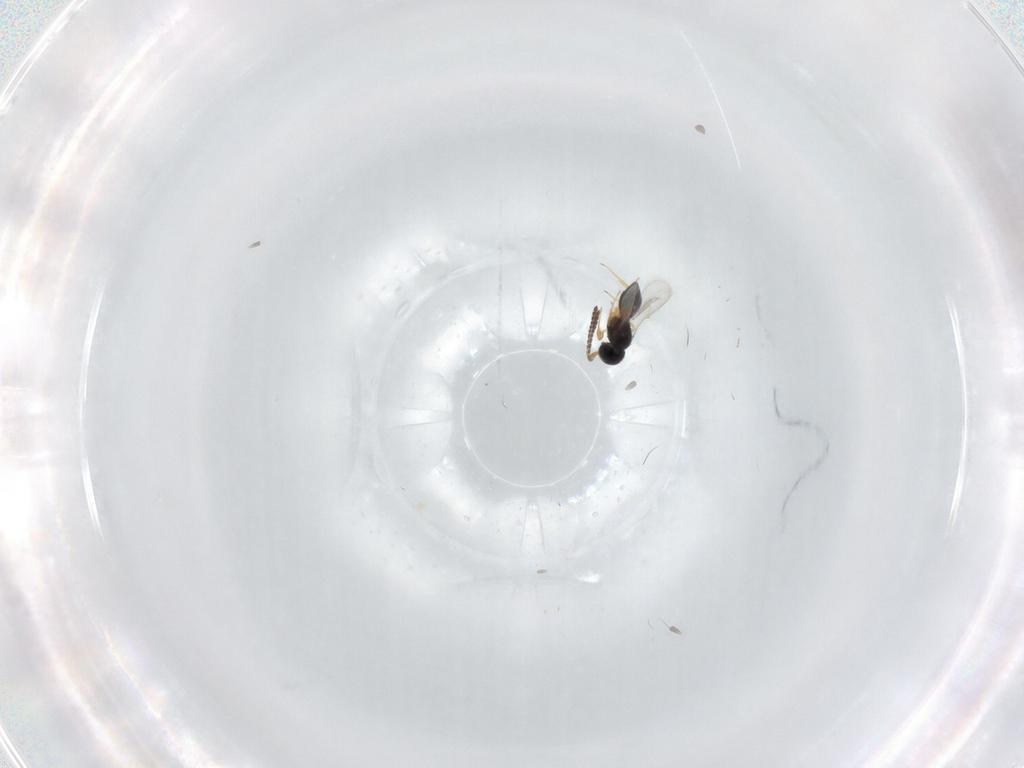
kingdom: Animalia
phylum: Arthropoda
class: Insecta
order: Hymenoptera
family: Scelionidae
